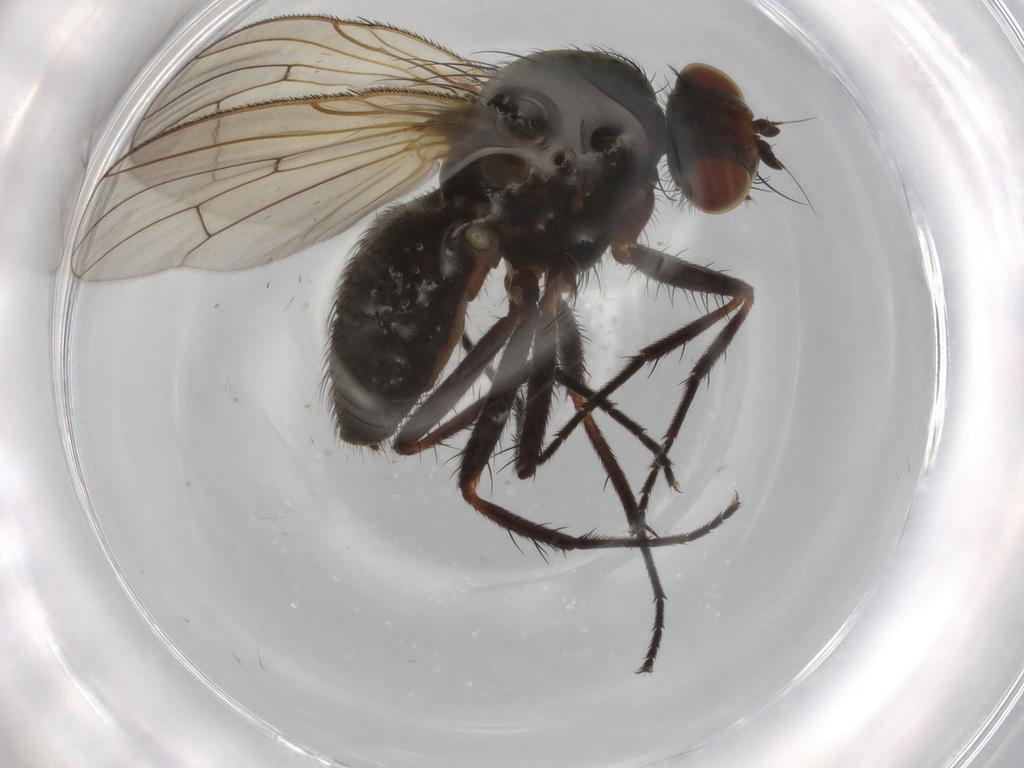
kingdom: Animalia
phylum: Arthropoda
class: Insecta
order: Diptera
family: Anthomyiidae
